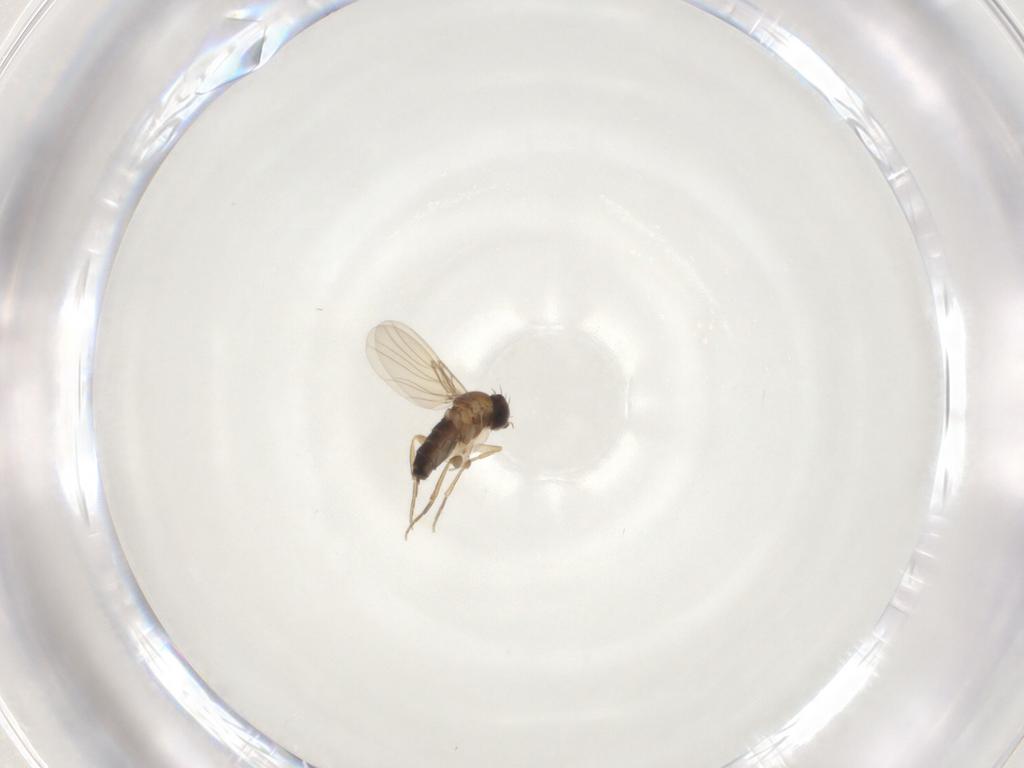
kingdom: Animalia
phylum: Arthropoda
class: Insecta
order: Diptera
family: Phoridae
